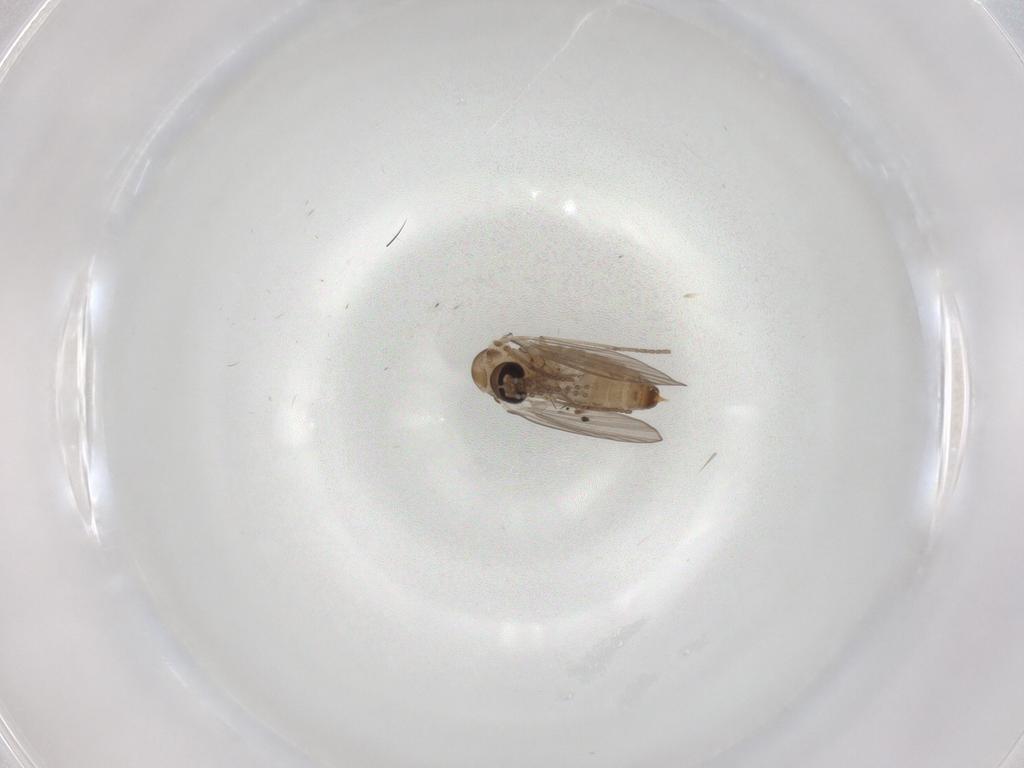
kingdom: Animalia
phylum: Arthropoda
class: Insecta
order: Diptera
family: Psychodidae
